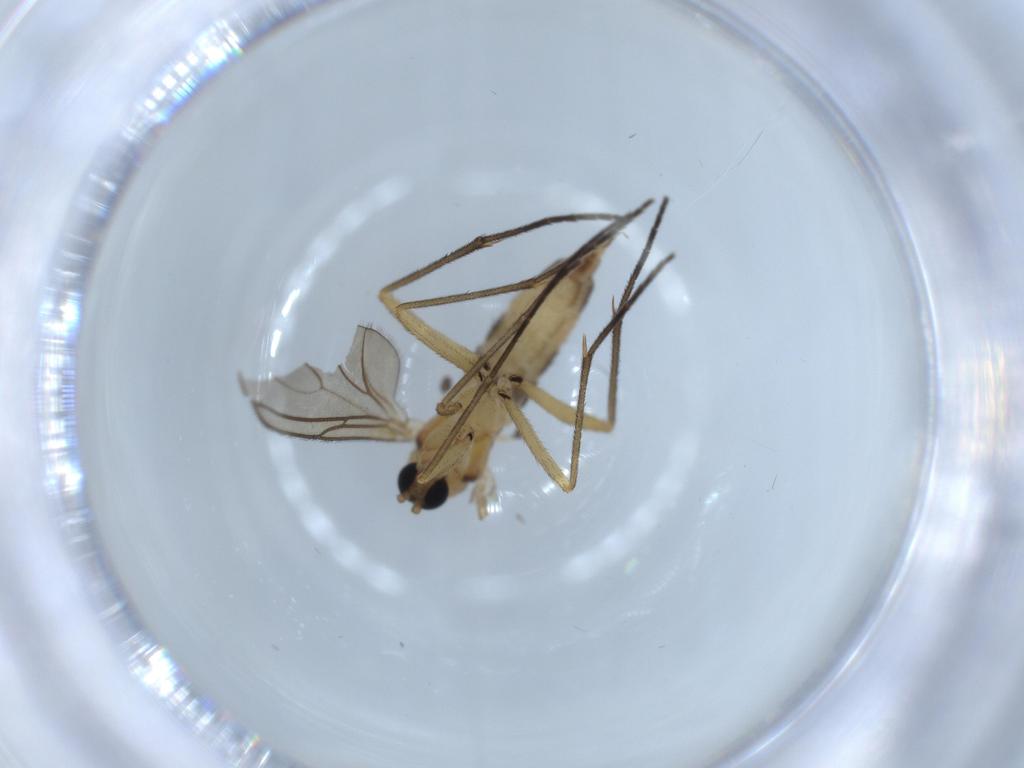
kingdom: Animalia
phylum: Arthropoda
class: Insecta
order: Diptera
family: Sciaridae
